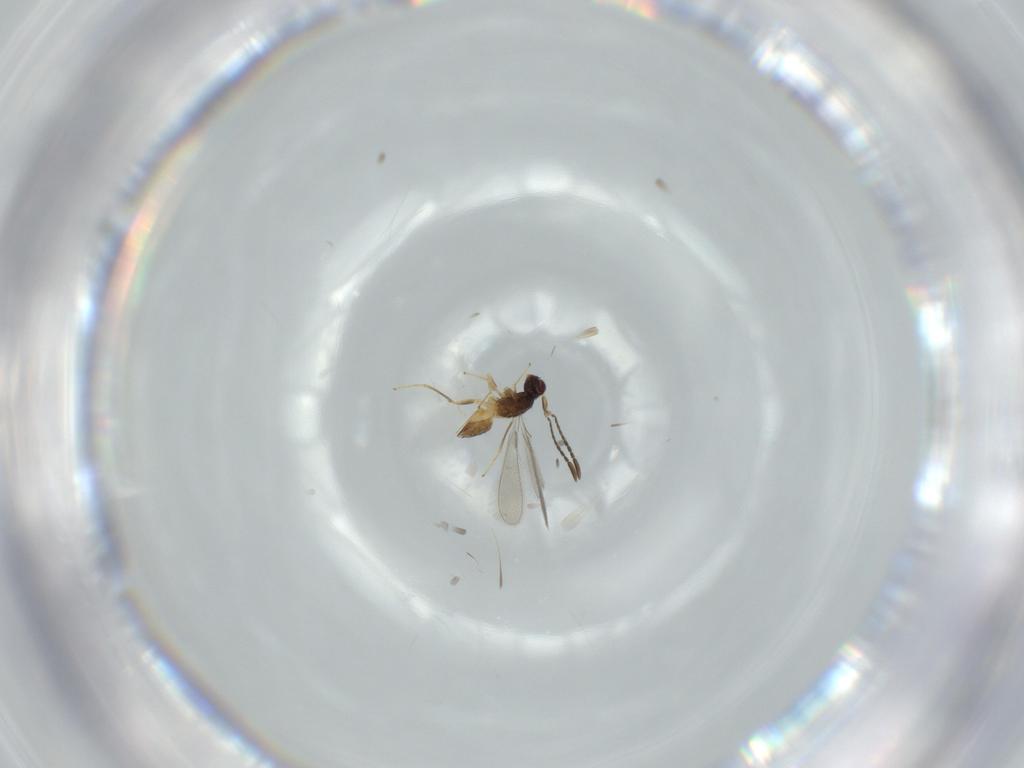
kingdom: Animalia
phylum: Arthropoda
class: Insecta
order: Hymenoptera
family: Mymaridae
